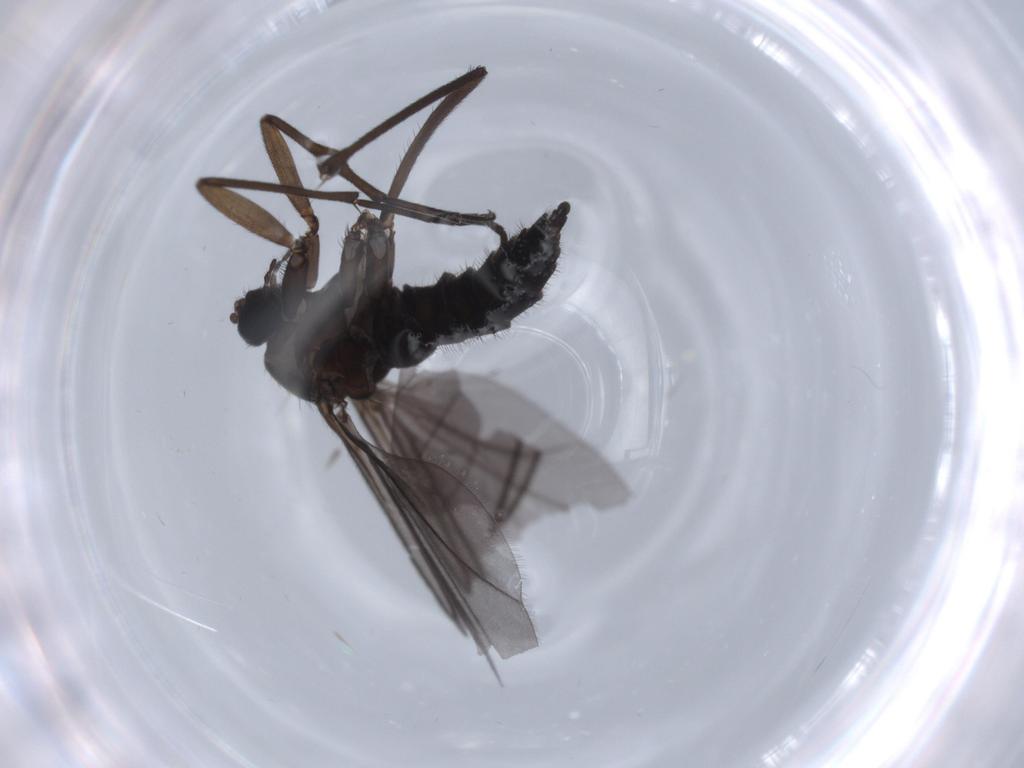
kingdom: Animalia
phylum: Arthropoda
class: Insecta
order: Diptera
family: Sciaridae
